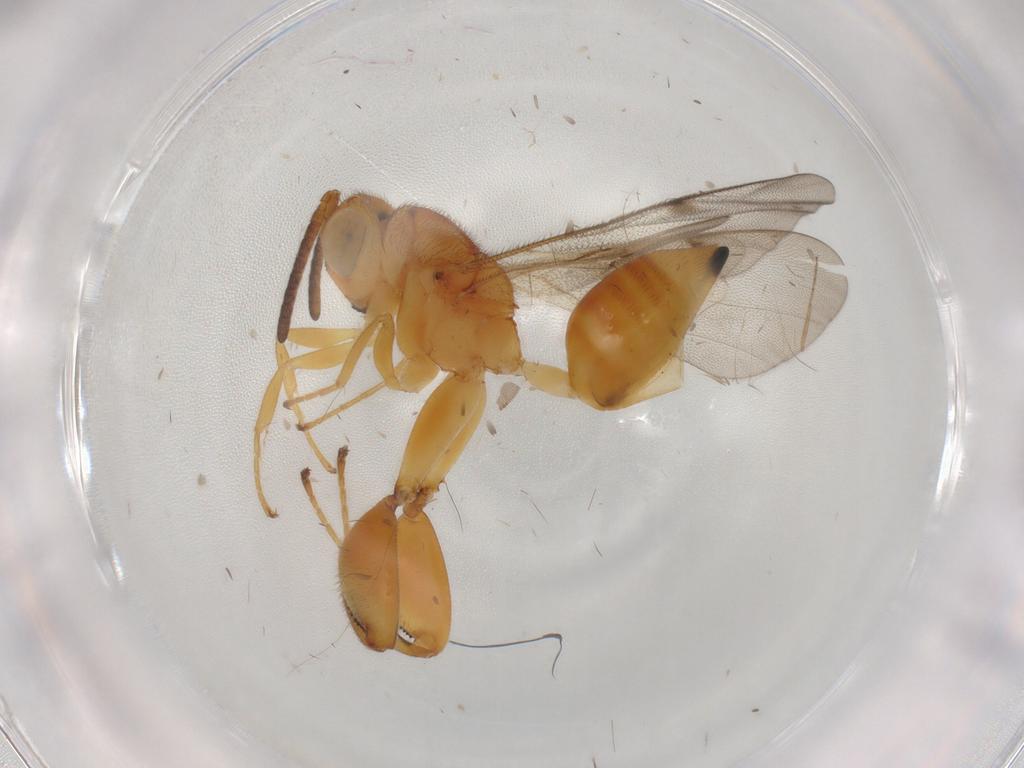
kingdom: Animalia
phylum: Arthropoda
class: Insecta
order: Hymenoptera
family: Chalcididae
